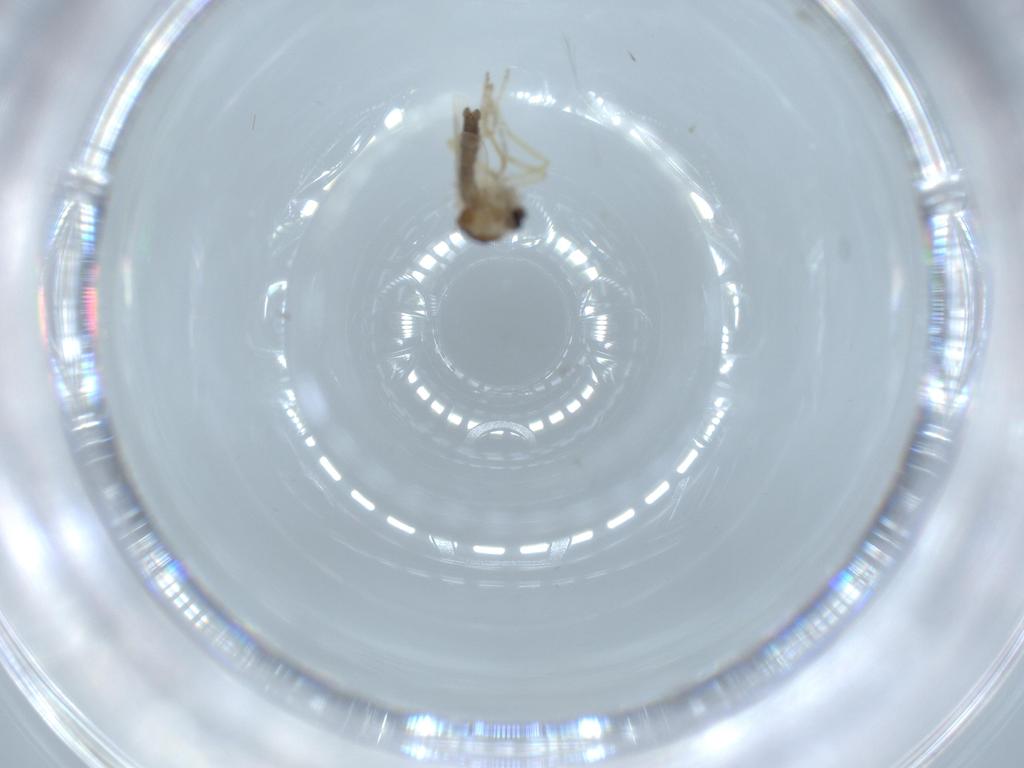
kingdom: Animalia
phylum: Arthropoda
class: Insecta
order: Diptera
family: Ceratopogonidae
